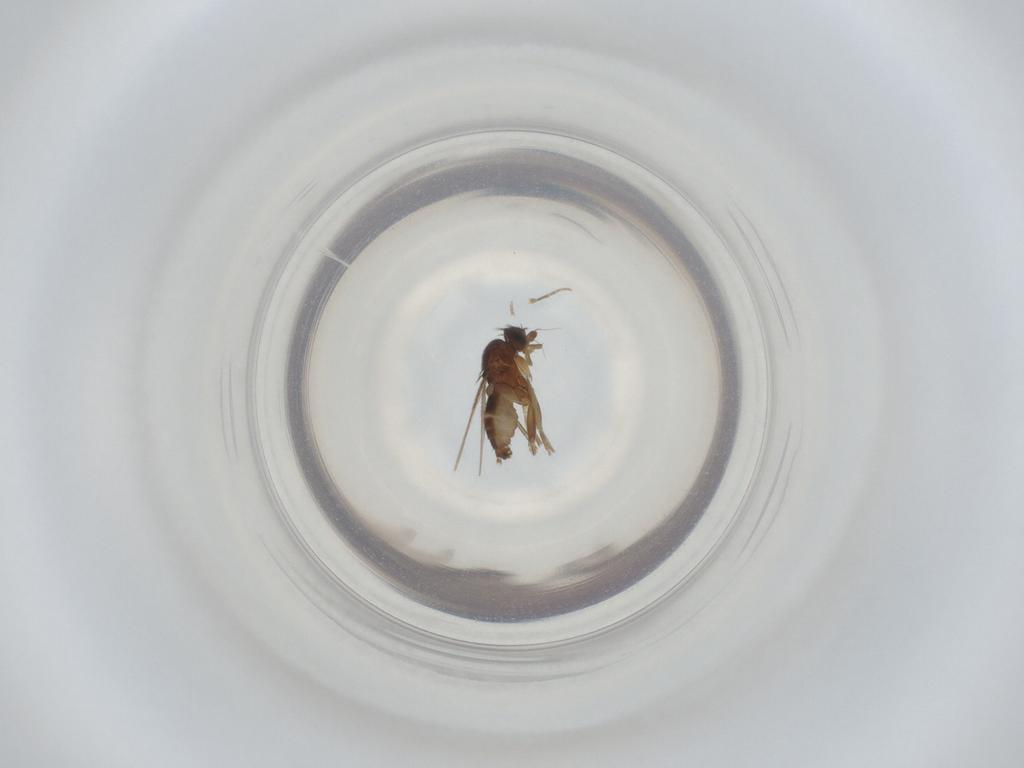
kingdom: Animalia
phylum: Arthropoda
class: Insecta
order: Diptera
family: Phoridae
